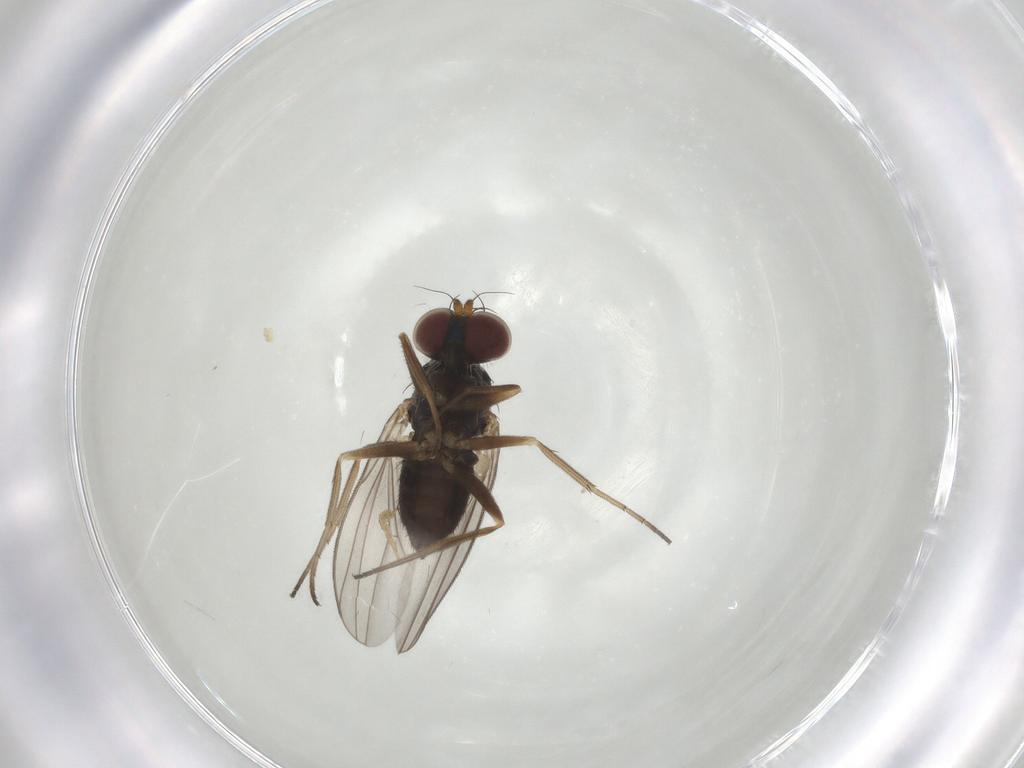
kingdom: Animalia
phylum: Arthropoda
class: Insecta
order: Diptera
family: Dolichopodidae
